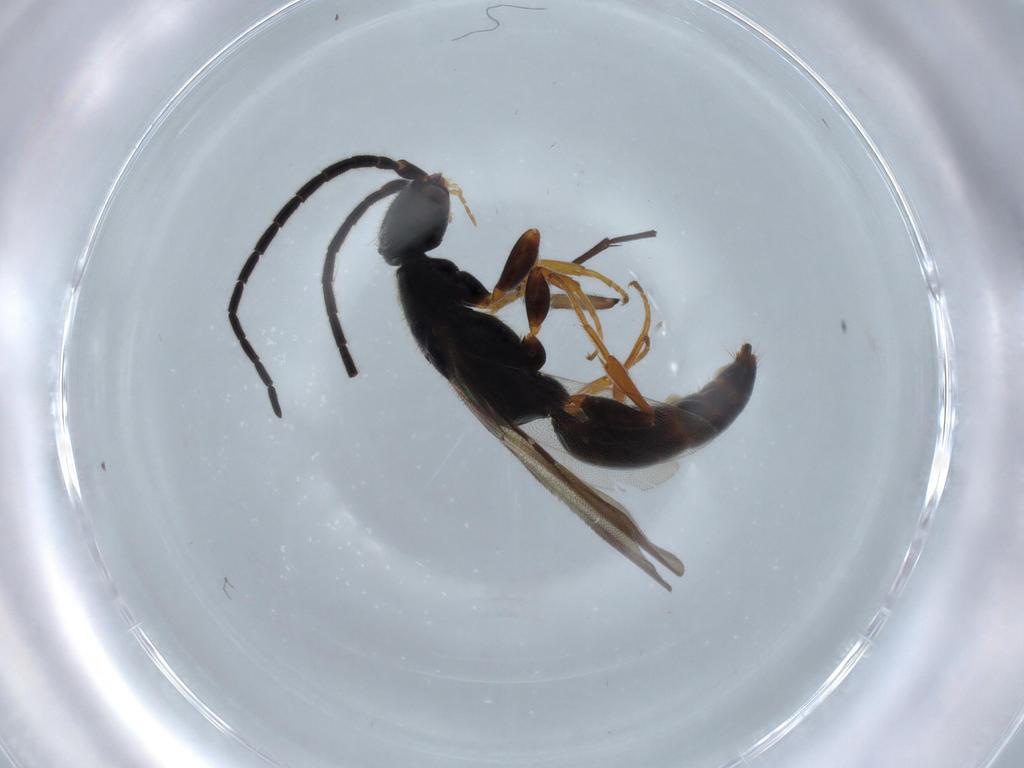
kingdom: Animalia
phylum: Arthropoda
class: Insecta
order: Hymenoptera
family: Bethylidae
